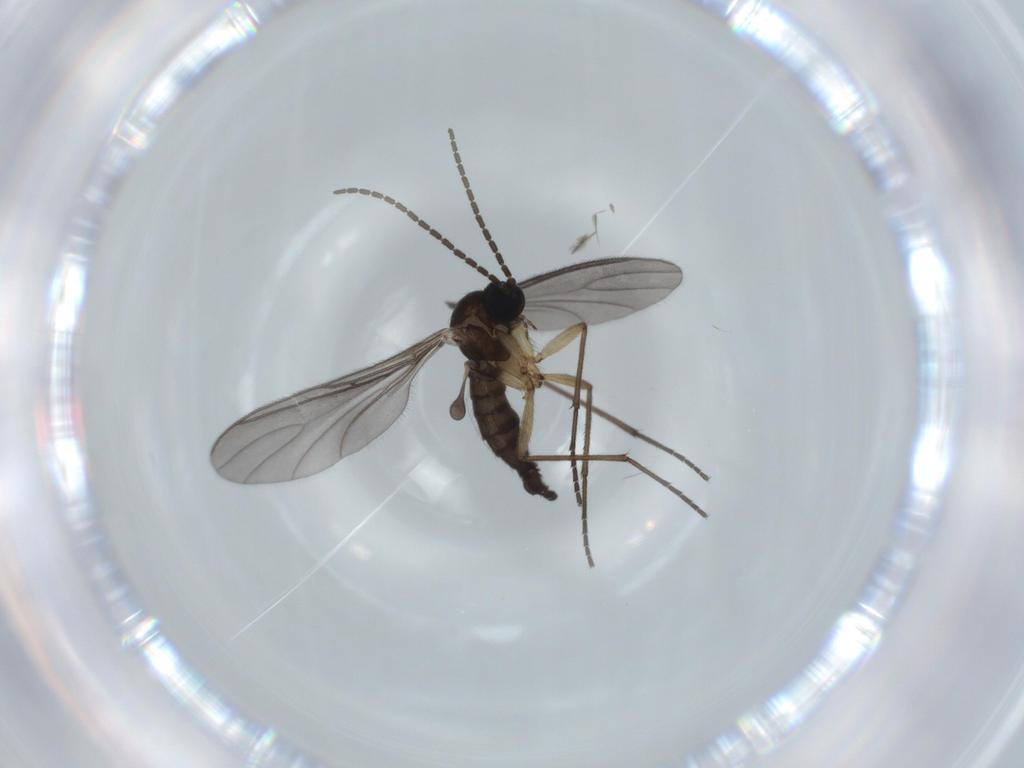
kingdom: Animalia
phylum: Arthropoda
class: Insecta
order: Diptera
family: Sciaridae
